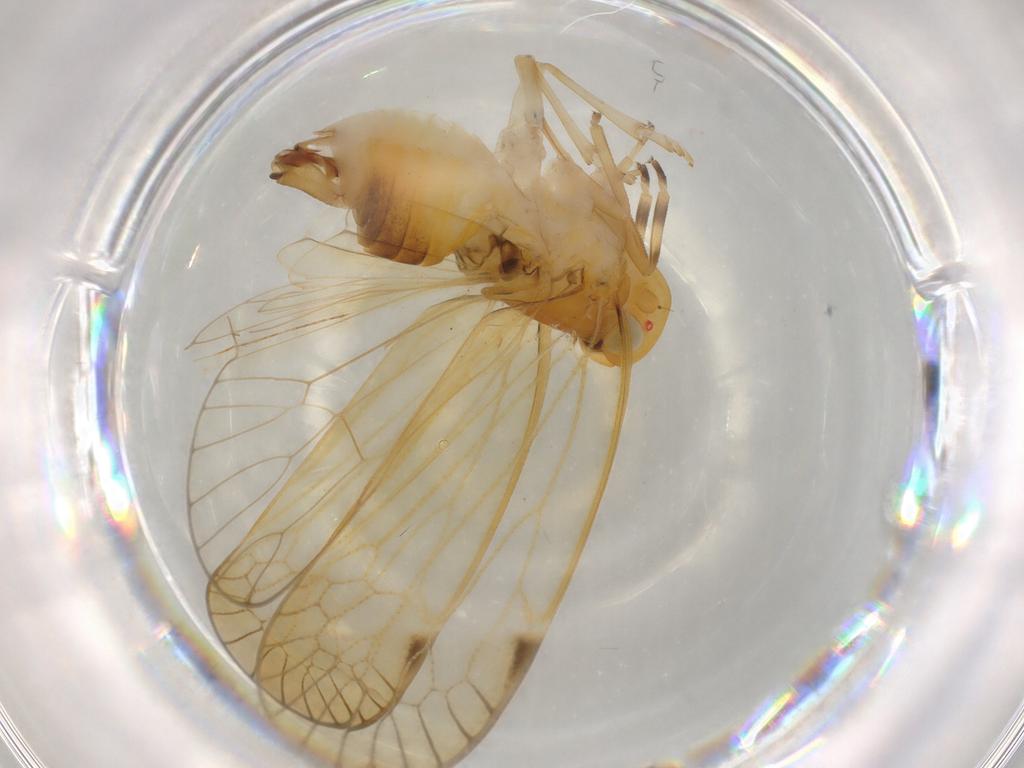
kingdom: Animalia
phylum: Arthropoda
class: Insecta
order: Hemiptera
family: Cixiidae
